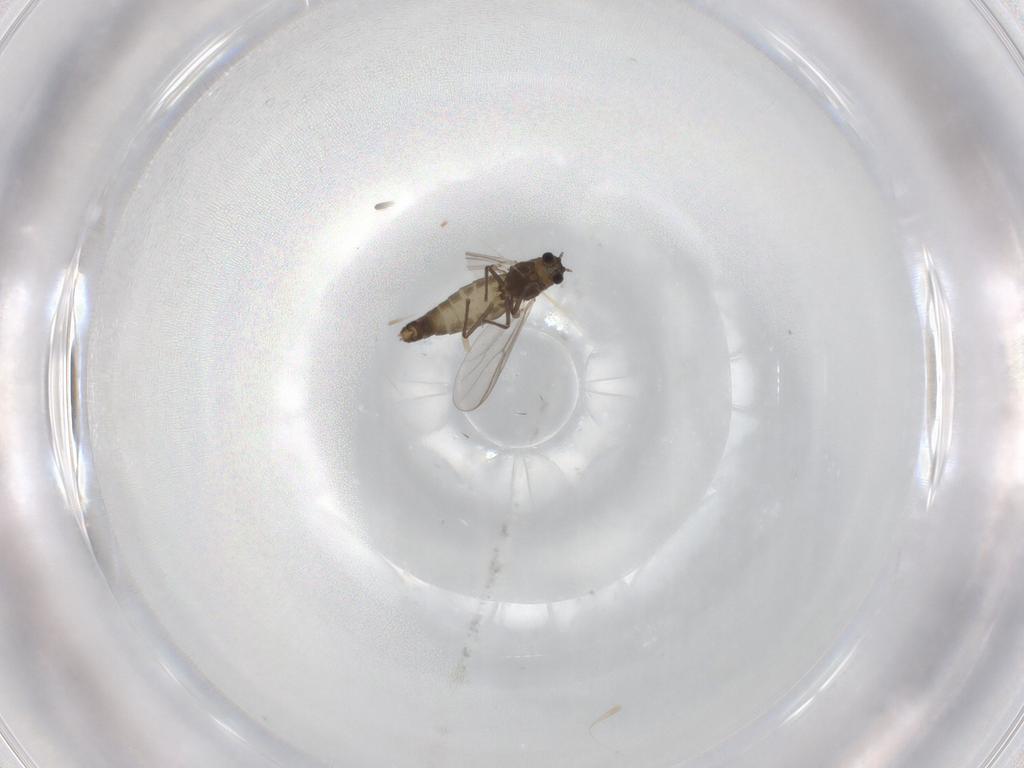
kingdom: Animalia
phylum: Arthropoda
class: Insecta
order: Diptera
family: Chironomidae
